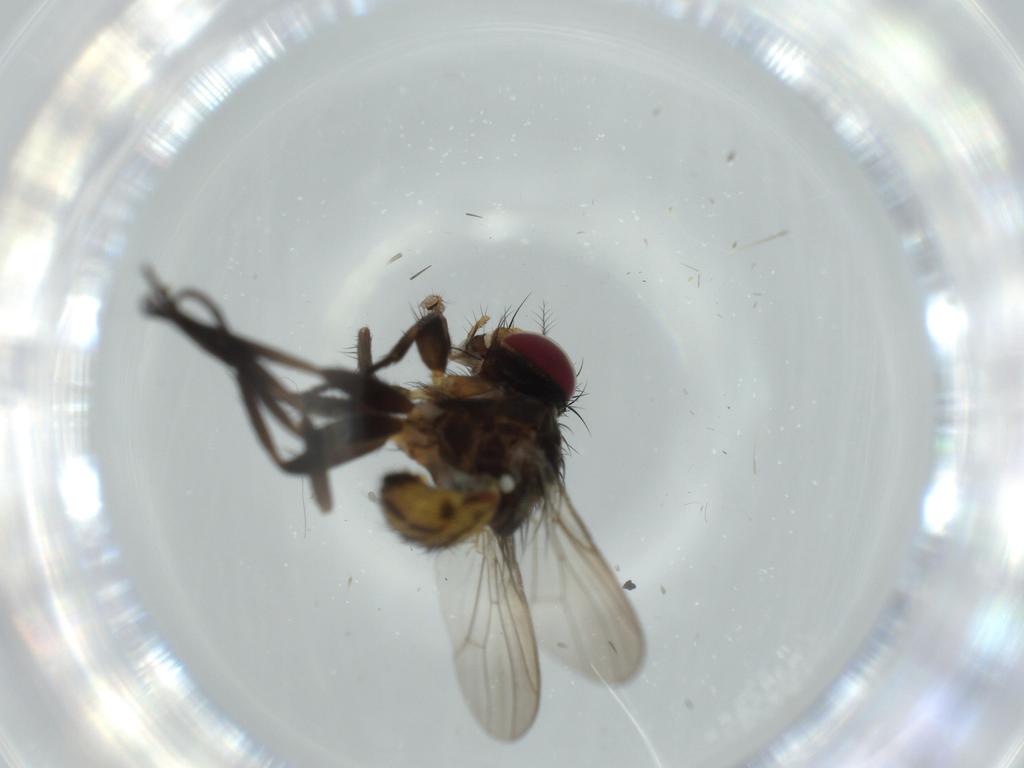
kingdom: Animalia
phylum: Arthropoda
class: Insecta
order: Diptera
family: Anthomyiidae
